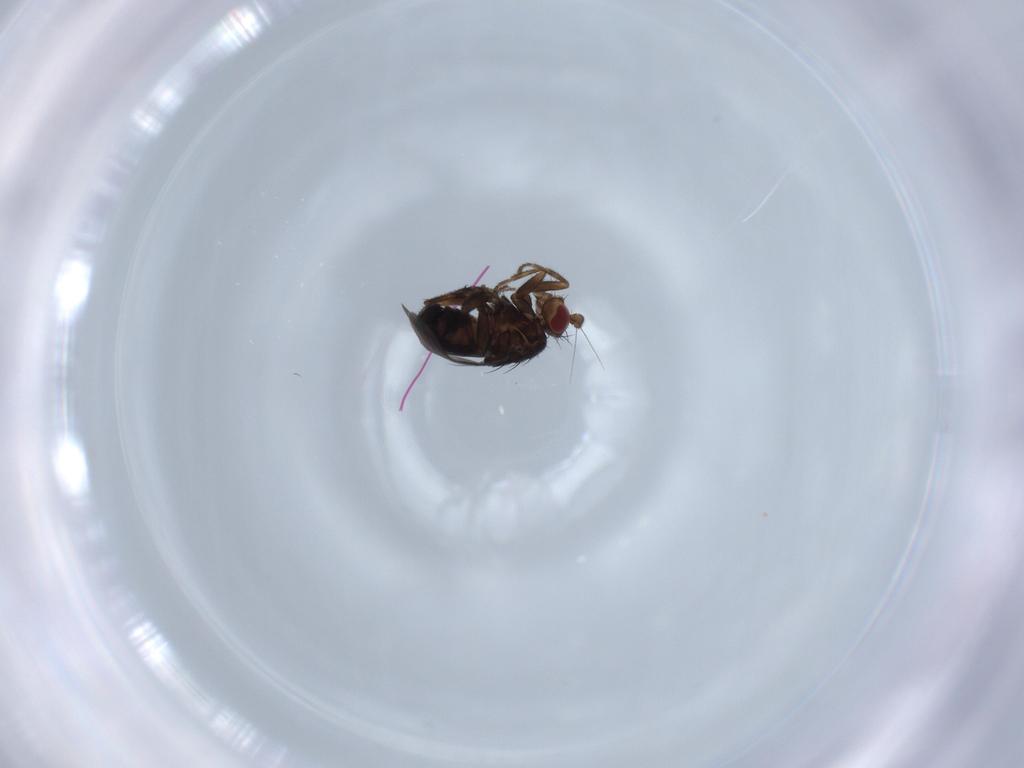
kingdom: Animalia
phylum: Arthropoda
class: Insecta
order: Diptera
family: Sphaeroceridae
